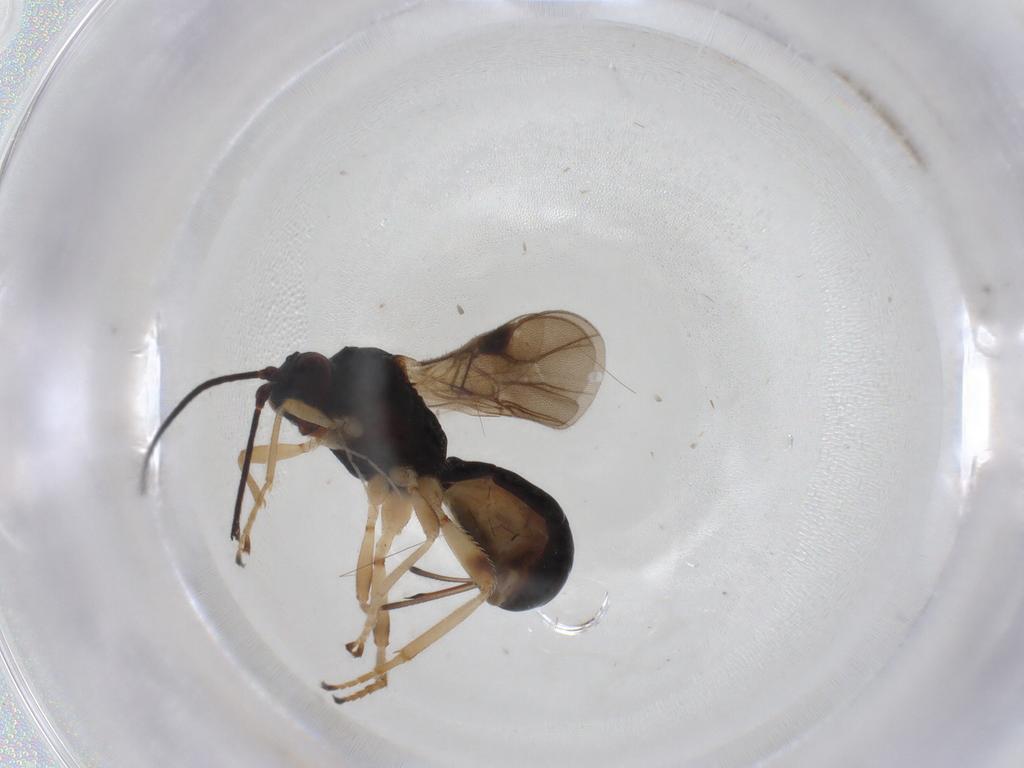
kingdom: Animalia
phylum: Arthropoda
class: Insecta
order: Hymenoptera
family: Braconidae
